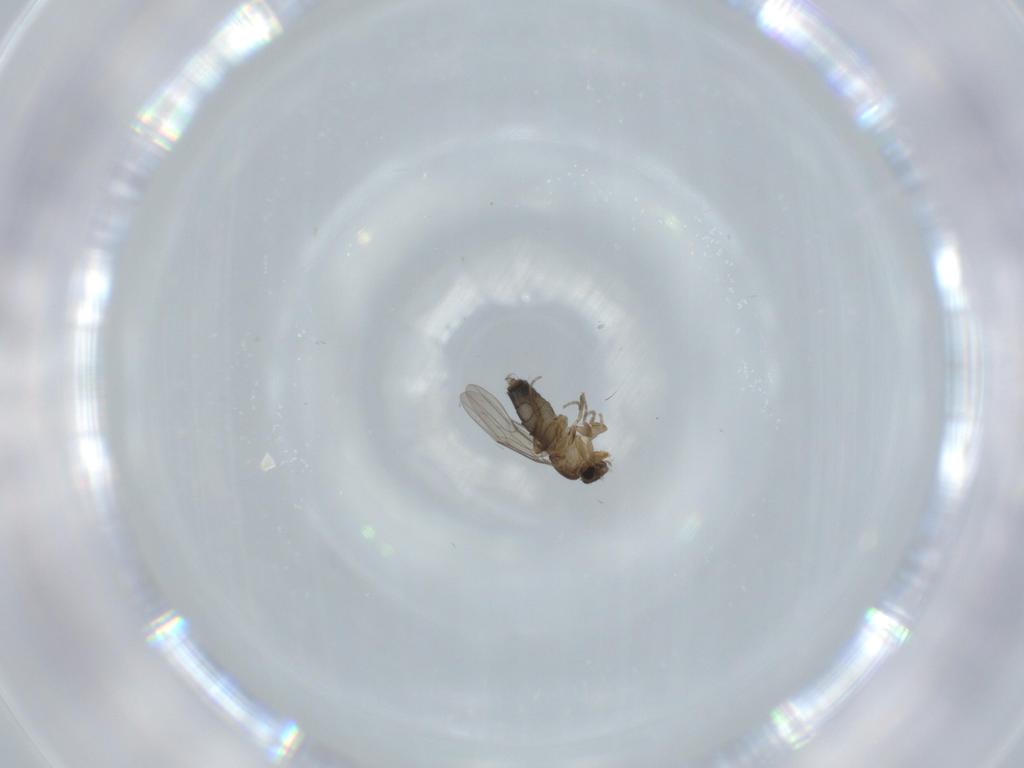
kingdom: Animalia
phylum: Arthropoda
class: Insecta
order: Diptera
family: Phoridae
